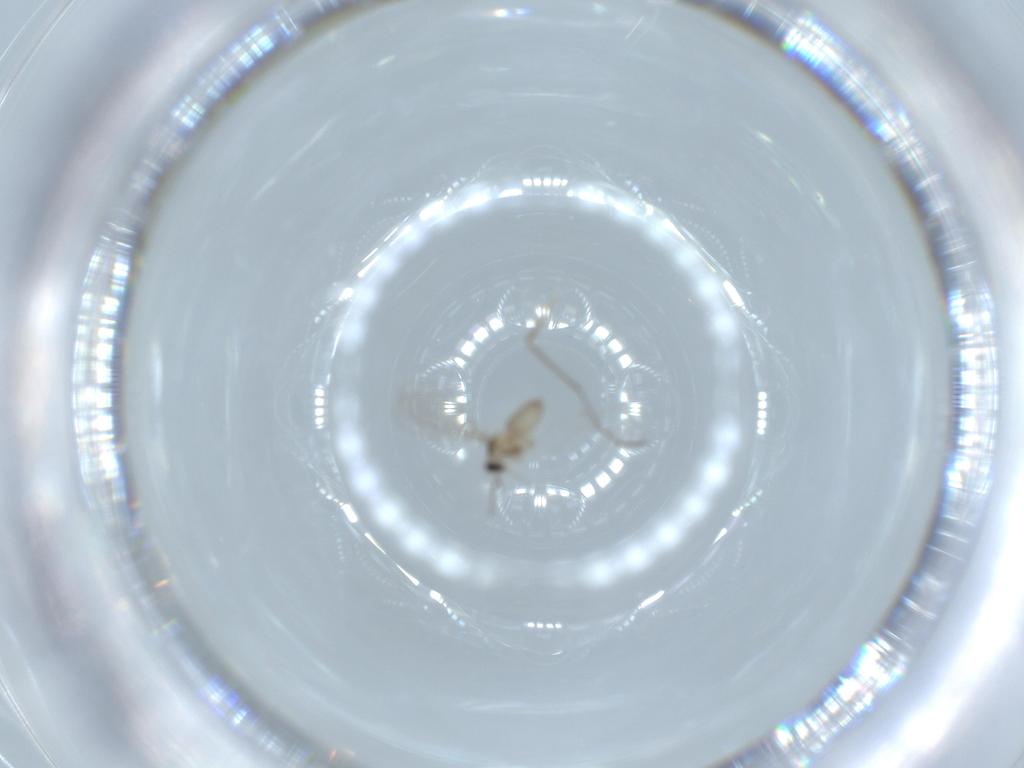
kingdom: Animalia
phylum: Arthropoda
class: Insecta
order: Diptera
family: Cecidomyiidae
